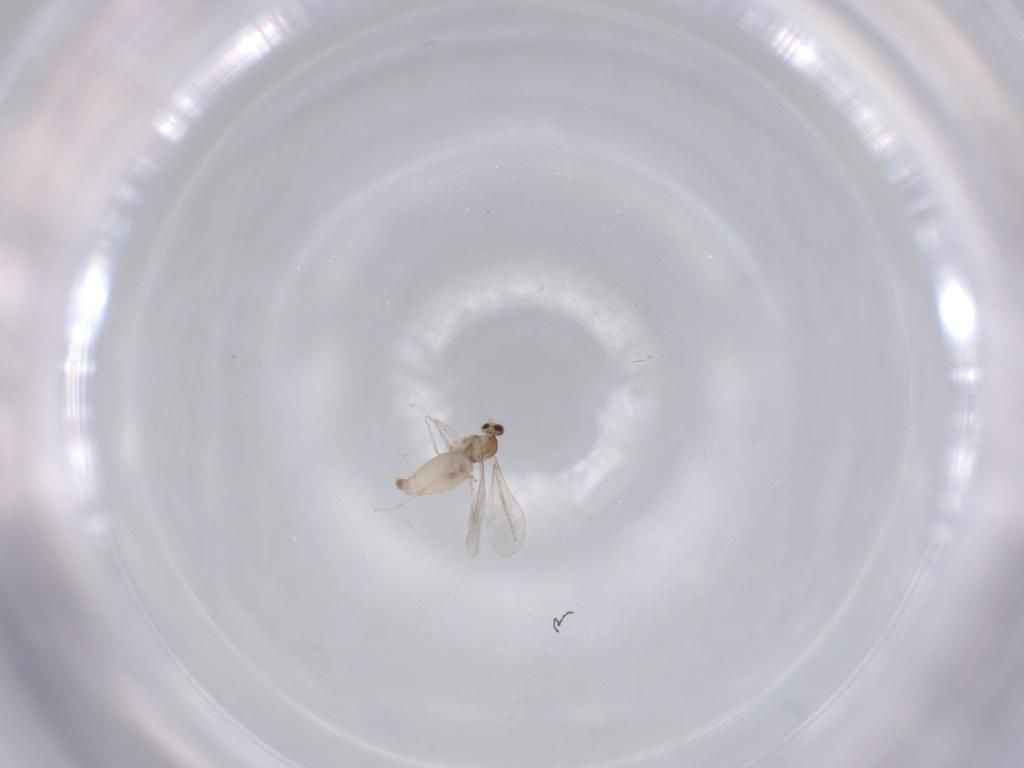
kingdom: Animalia
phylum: Arthropoda
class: Insecta
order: Diptera
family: Cecidomyiidae
